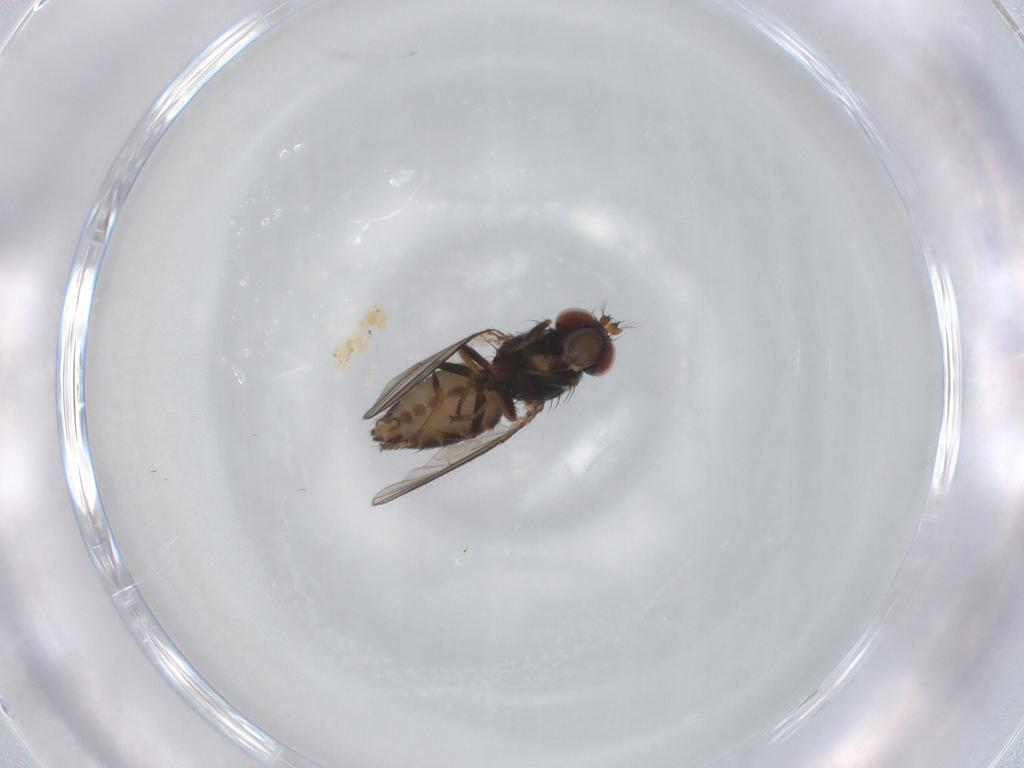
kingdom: Animalia
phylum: Arthropoda
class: Insecta
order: Diptera
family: Ephydridae
